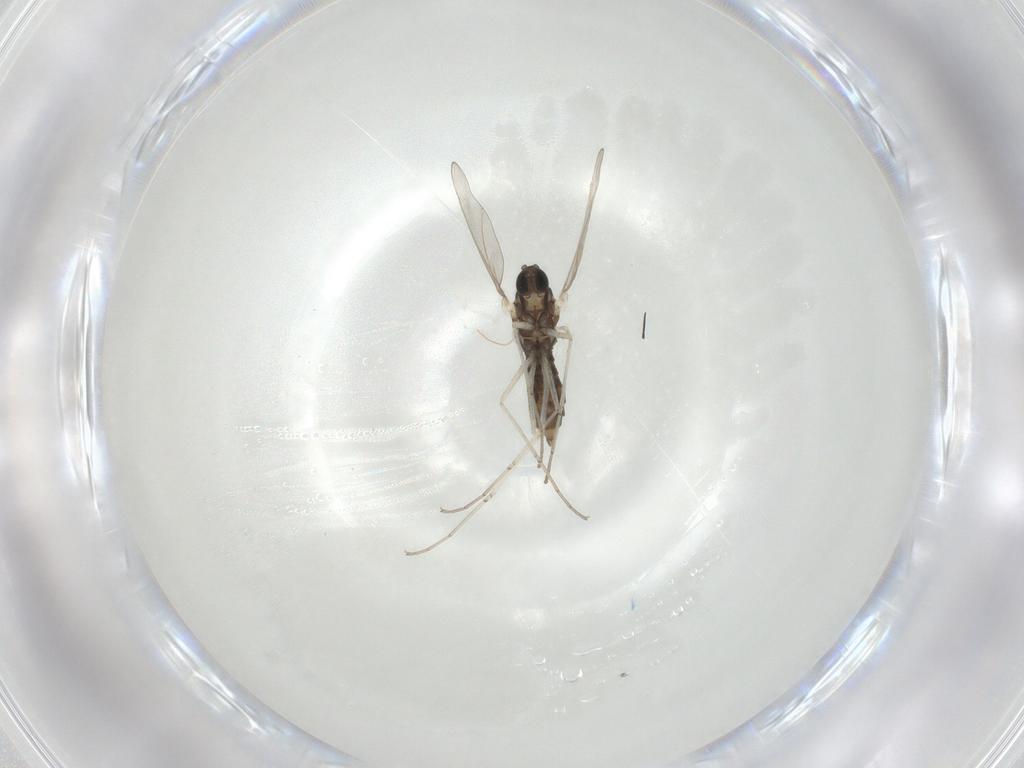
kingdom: Animalia
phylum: Arthropoda
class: Insecta
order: Diptera
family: Cecidomyiidae
